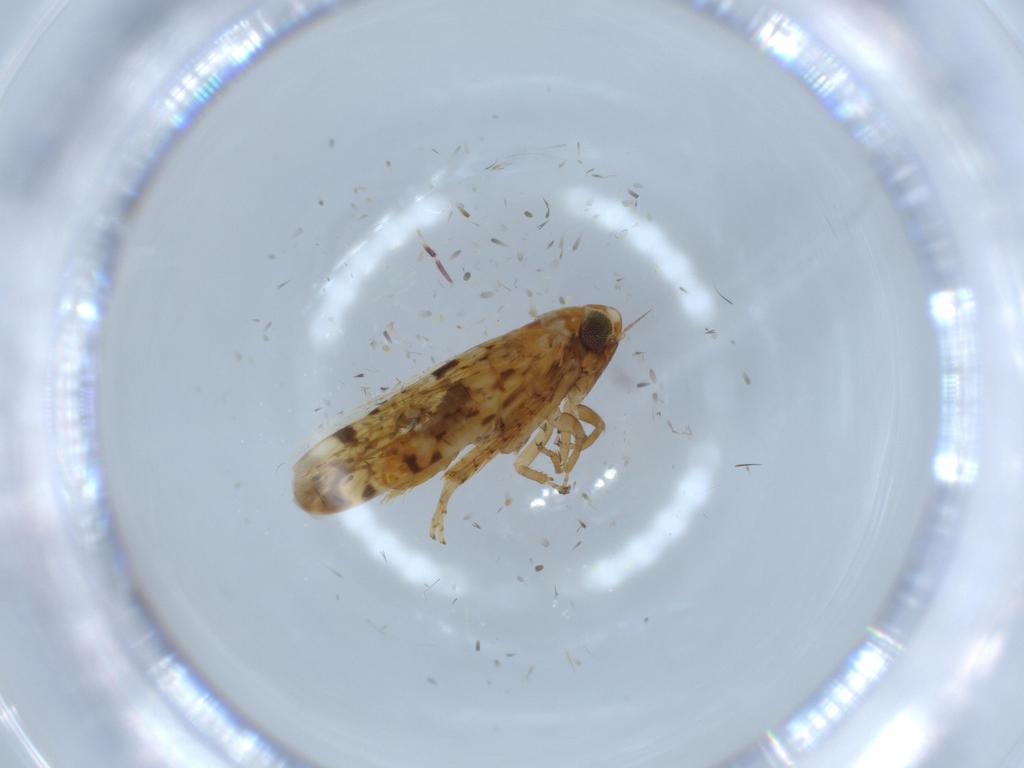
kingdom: Animalia
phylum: Arthropoda
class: Insecta
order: Hemiptera
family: Cicadellidae
